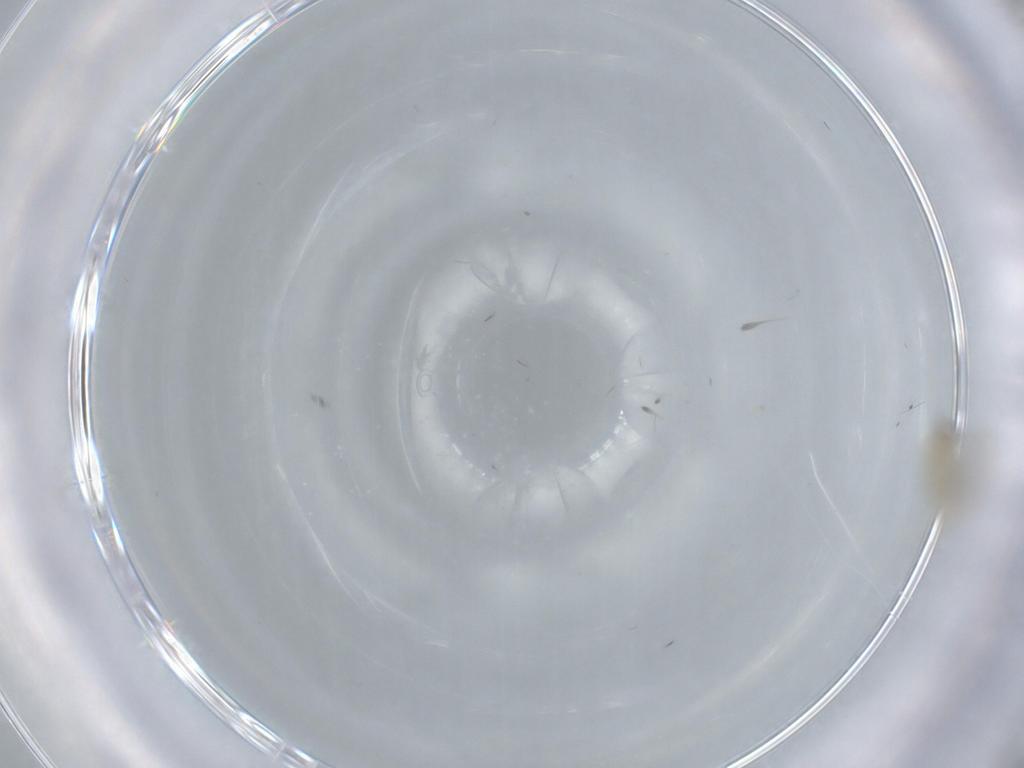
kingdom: Animalia
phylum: Arthropoda
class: Insecta
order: Diptera
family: Cecidomyiidae
